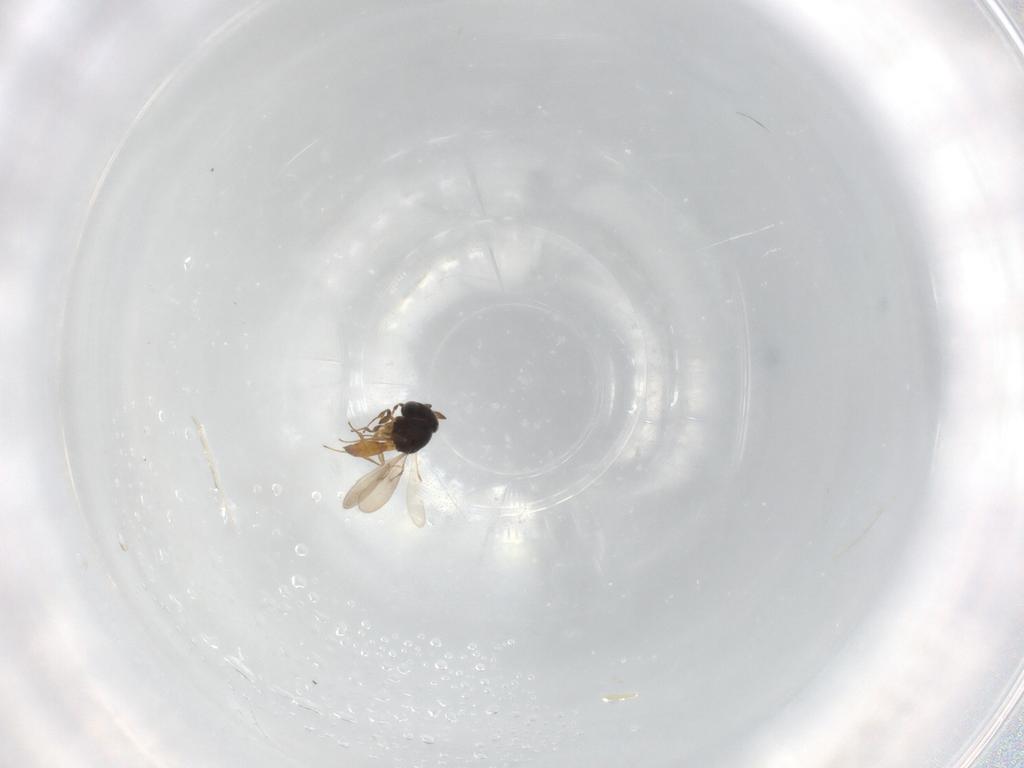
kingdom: Animalia
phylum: Arthropoda
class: Arachnida
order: Araneae
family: Pholcidae
